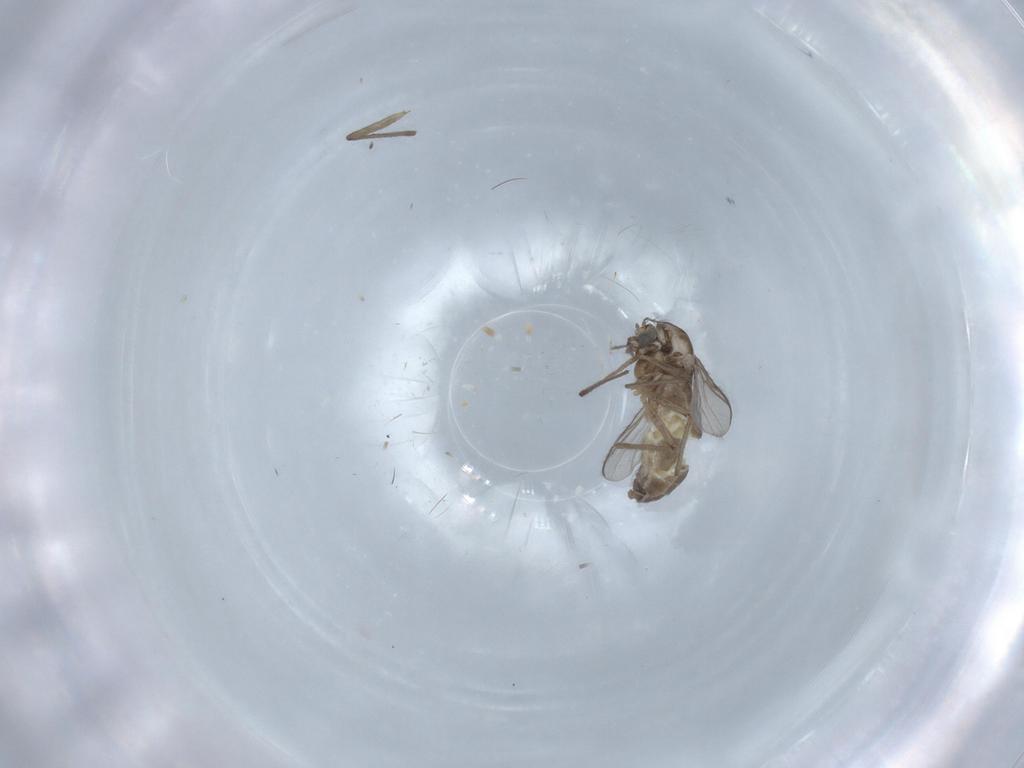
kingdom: Animalia
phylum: Arthropoda
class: Insecta
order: Diptera
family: Chironomidae
